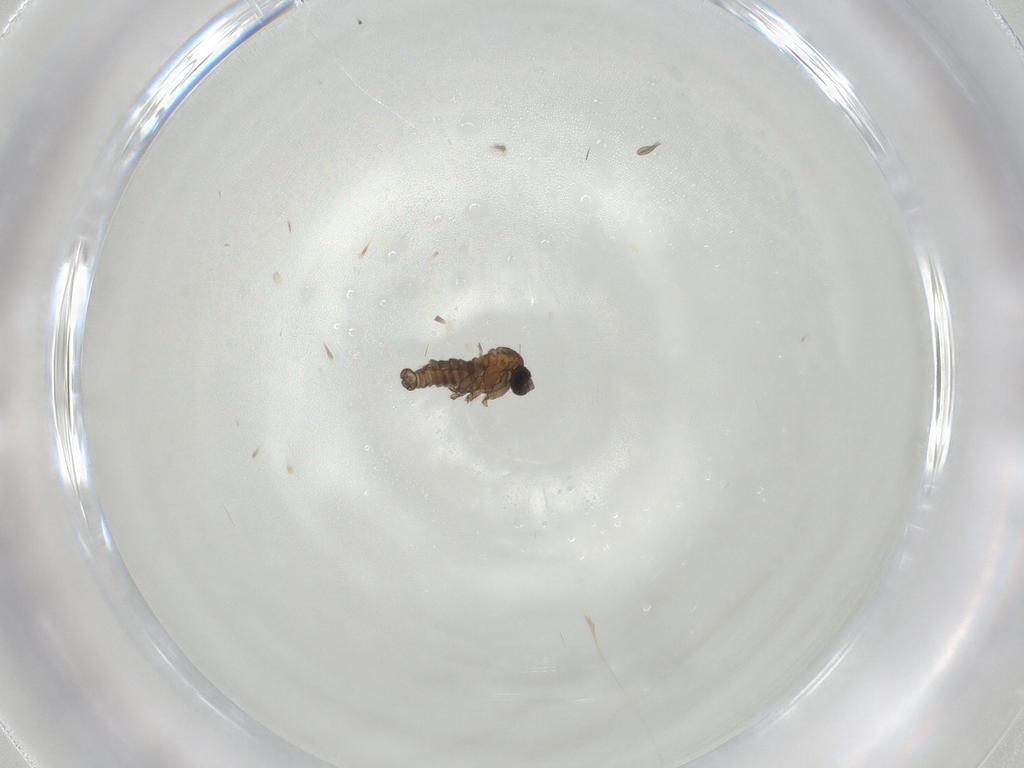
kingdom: Animalia
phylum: Arthropoda
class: Insecta
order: Diptera
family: Sciaridae
